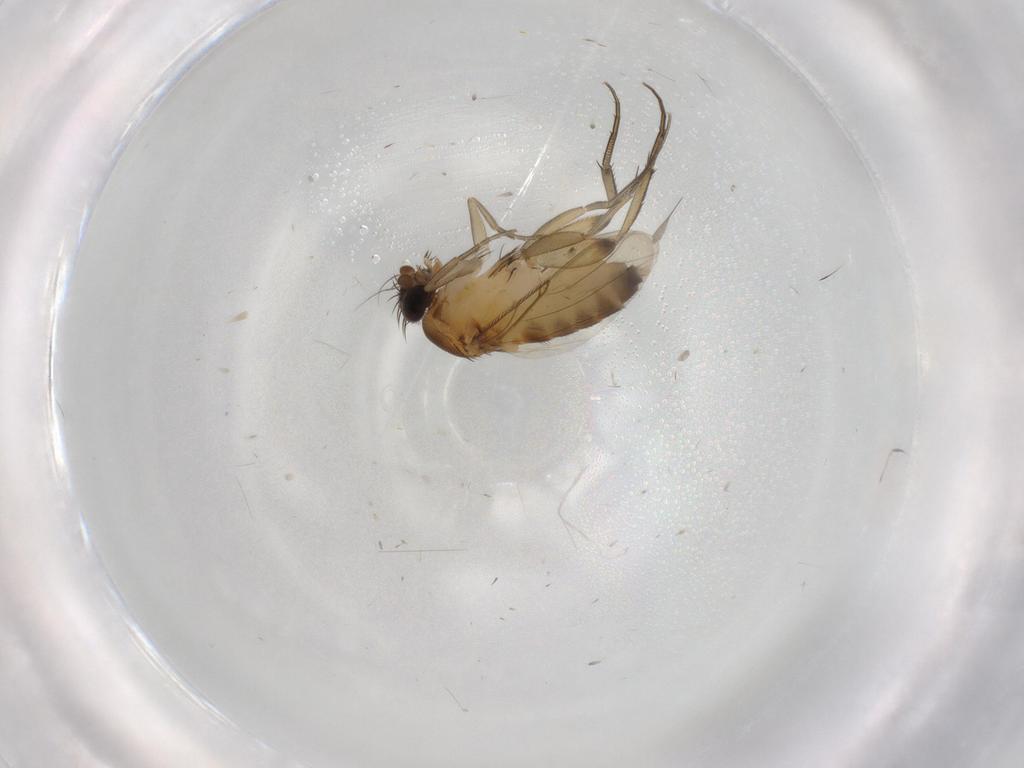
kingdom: Animalia
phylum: Arthropoda
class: Insecta
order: Diptera
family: Phoridae
